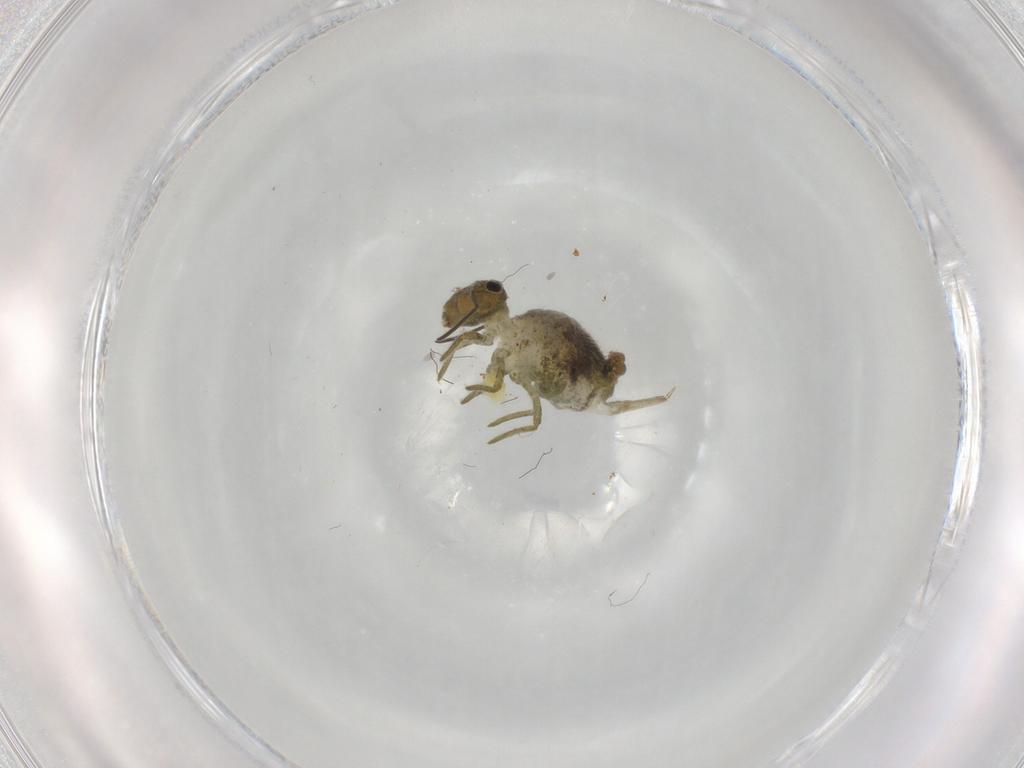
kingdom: Animalia
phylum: Arthropoda
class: Collembola
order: Symphypleona
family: Sminthuridae
